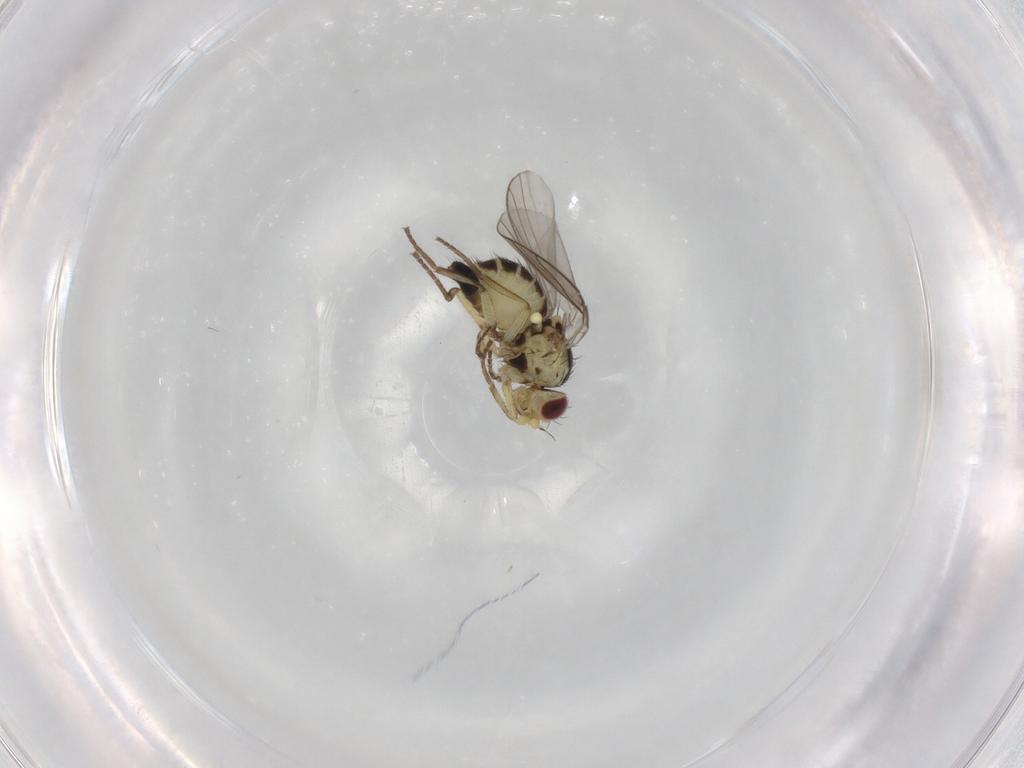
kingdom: Animalia
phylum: Arthropoda
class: Insecta
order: Diptera
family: Agromyzidae
